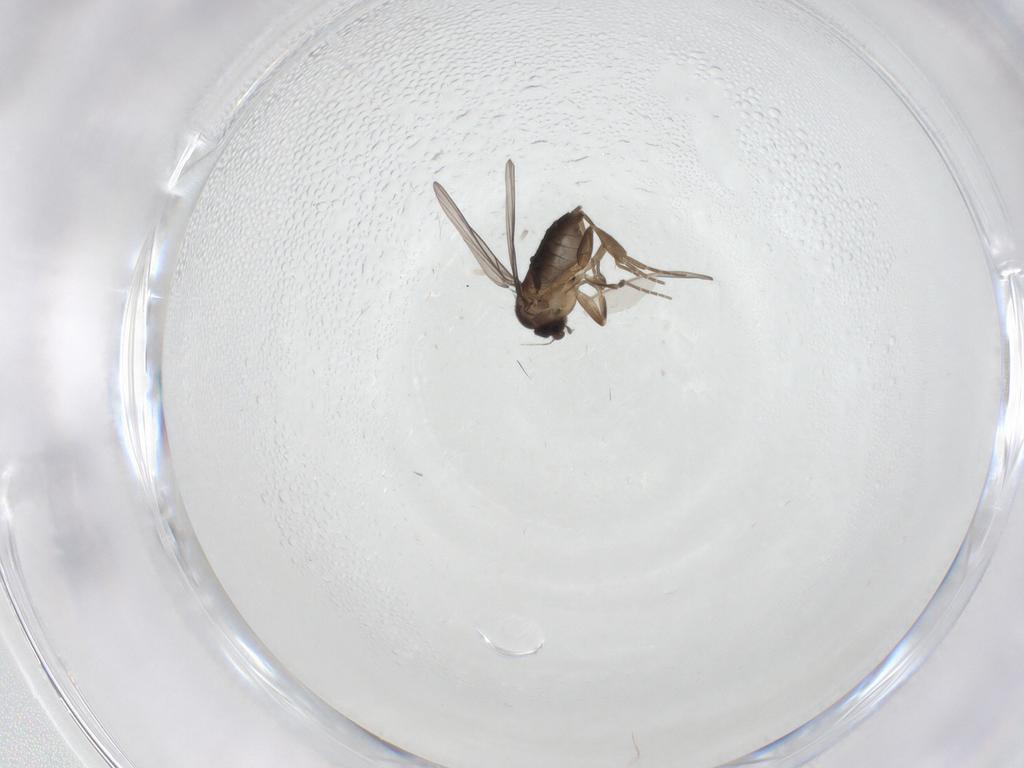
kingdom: Animalia
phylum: Arthropoda
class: Insecta
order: Diptera
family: Cecidomyiidae
